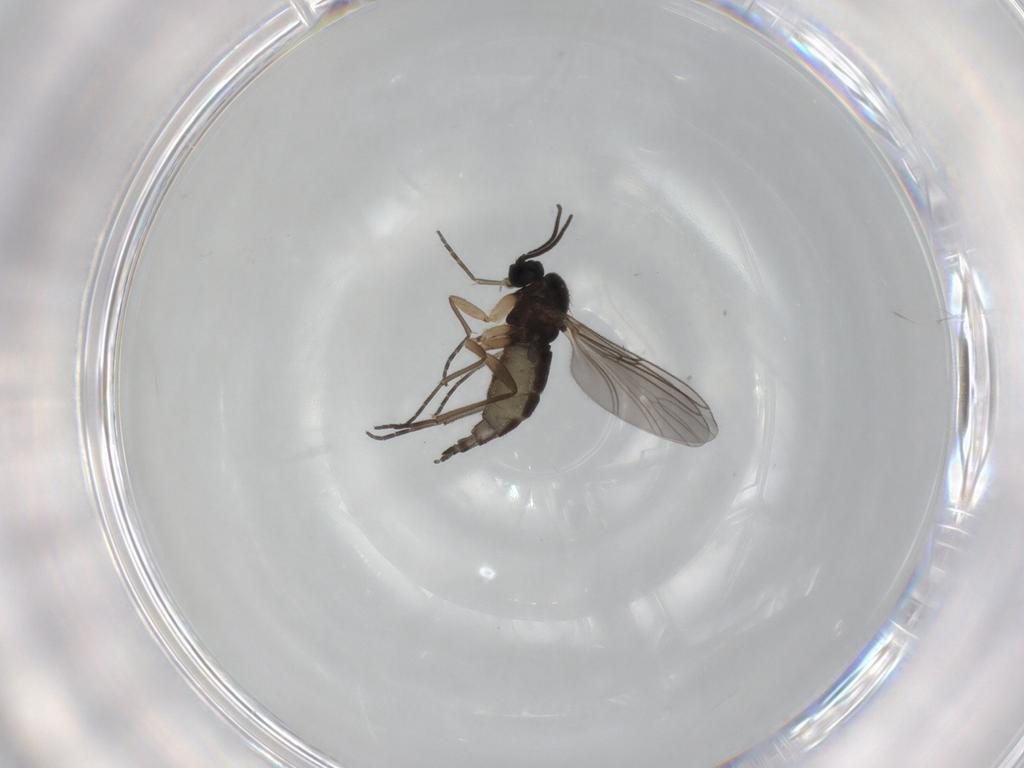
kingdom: Animalia
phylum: Arthropoda
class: Insecta
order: Diptera
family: Sciaridae
